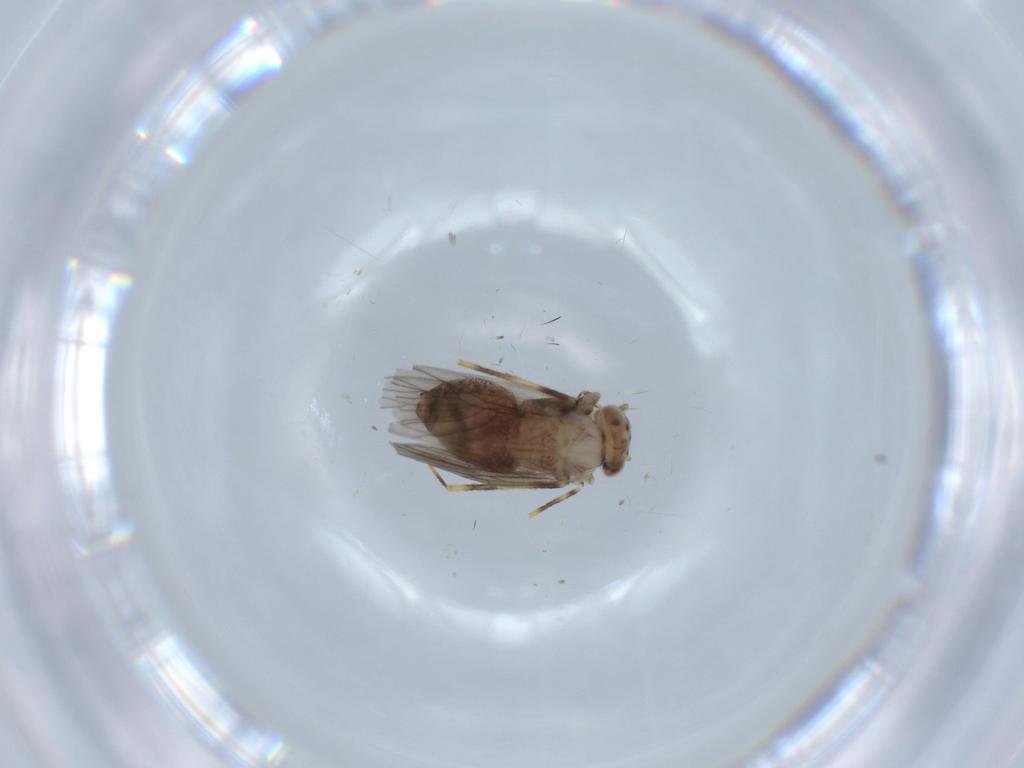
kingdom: Animalia
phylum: Arthropoda
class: Insecta
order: Psocodea
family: Lepidopsocidae
